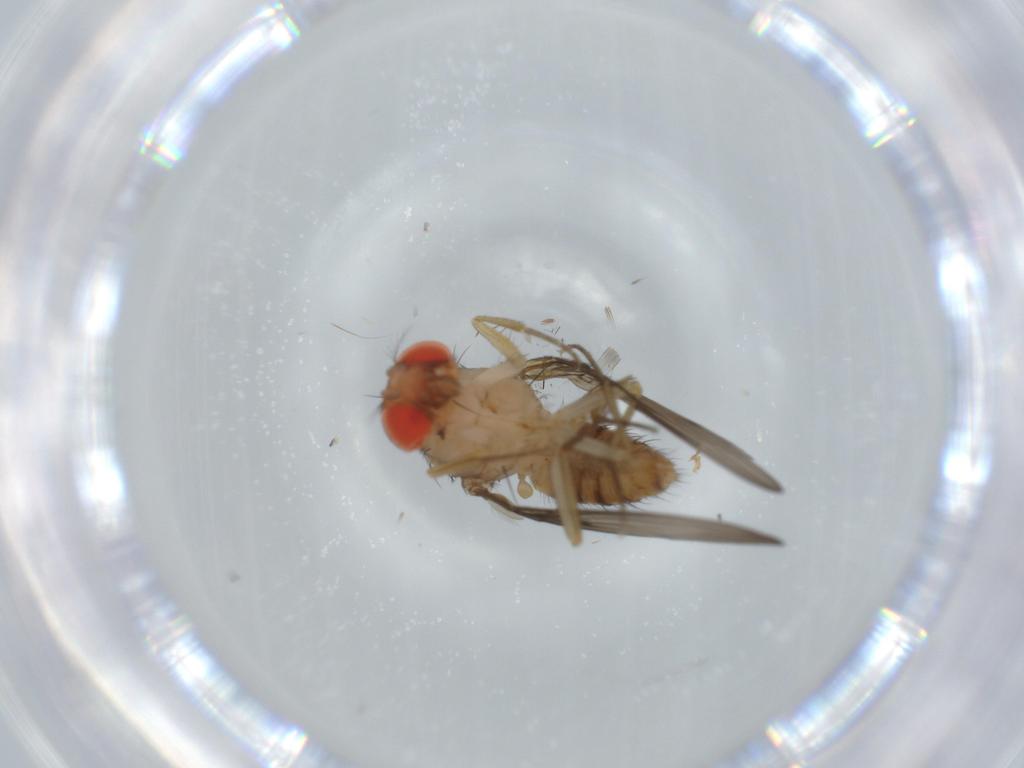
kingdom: Animalia
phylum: Arthropoda
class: Insecta
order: Diptera
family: Drosophilidae
